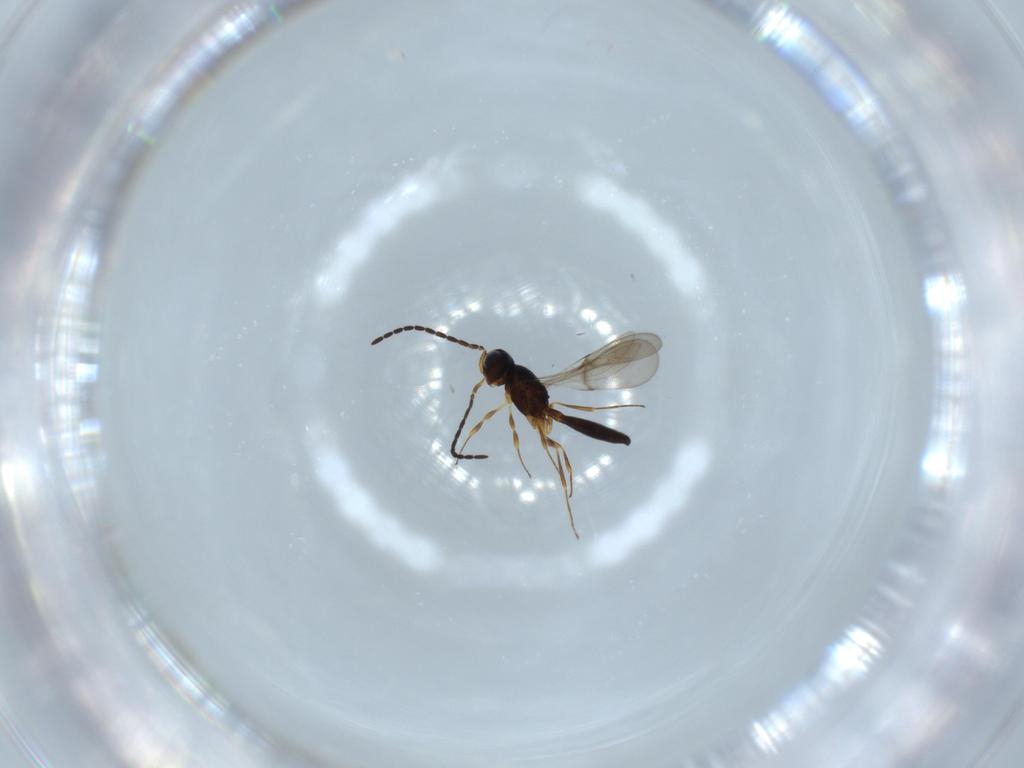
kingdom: Animalia
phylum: Arthropoda
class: Insecta
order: Hymenoptera
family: Scelionidae
